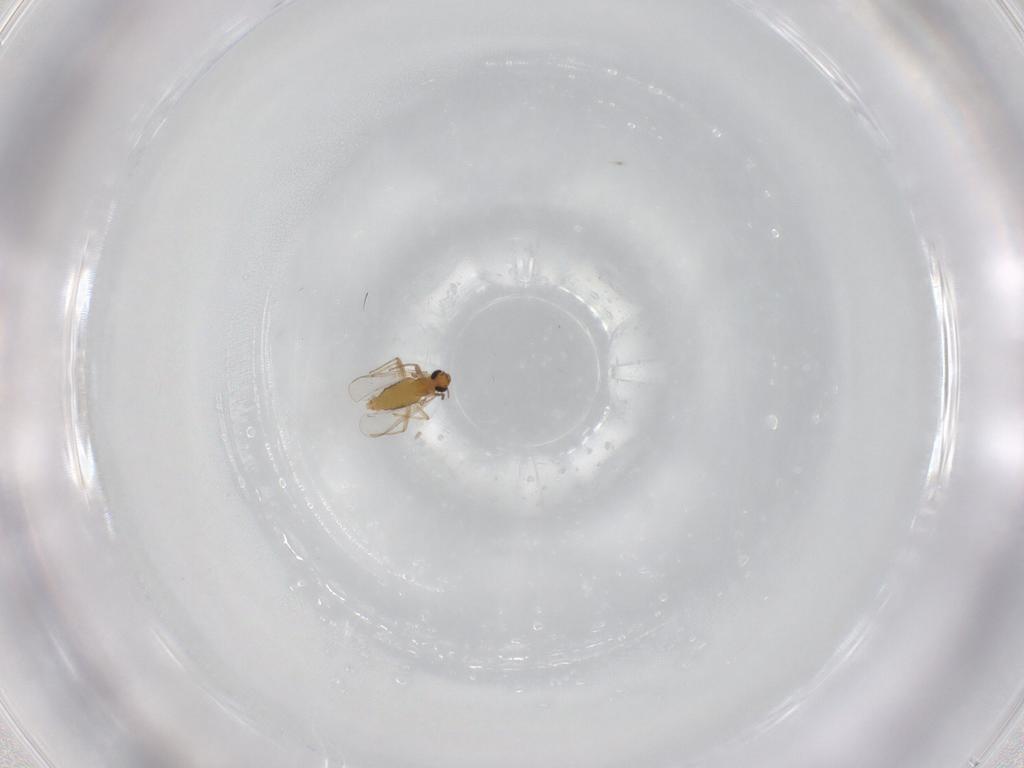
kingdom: Animalia
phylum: Arthropoda
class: Insecta
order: Diptera
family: Chironomidae
